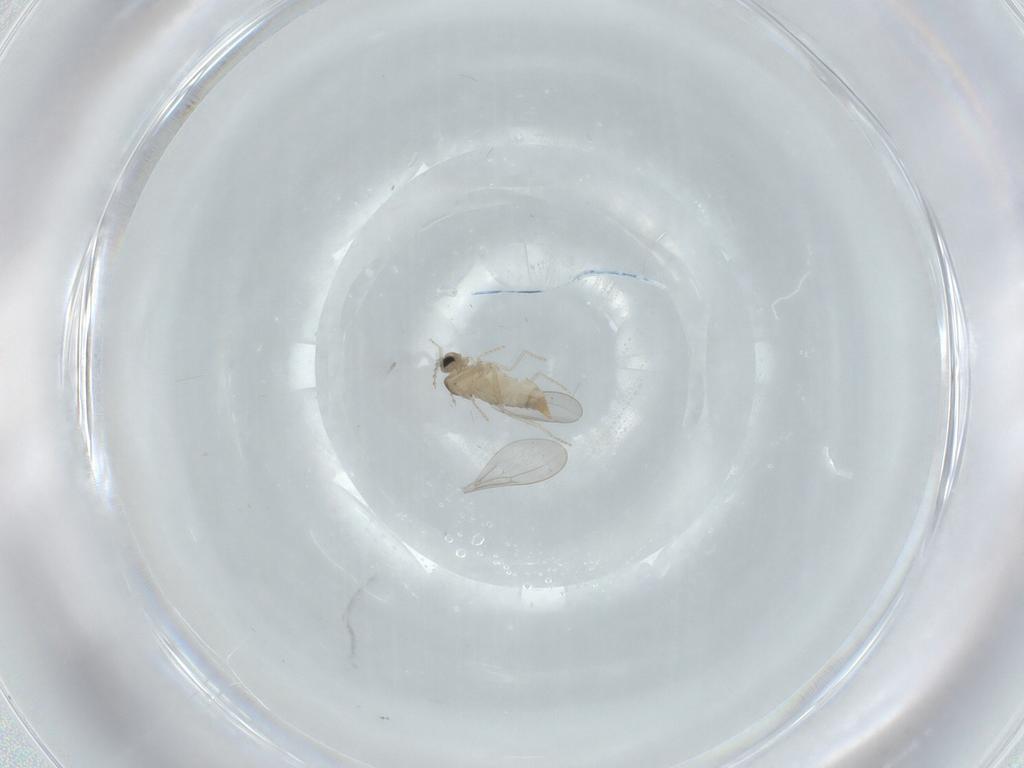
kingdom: Animalia
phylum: Arthropoda
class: Insecta
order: Diptera
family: Cecidomyiidae
